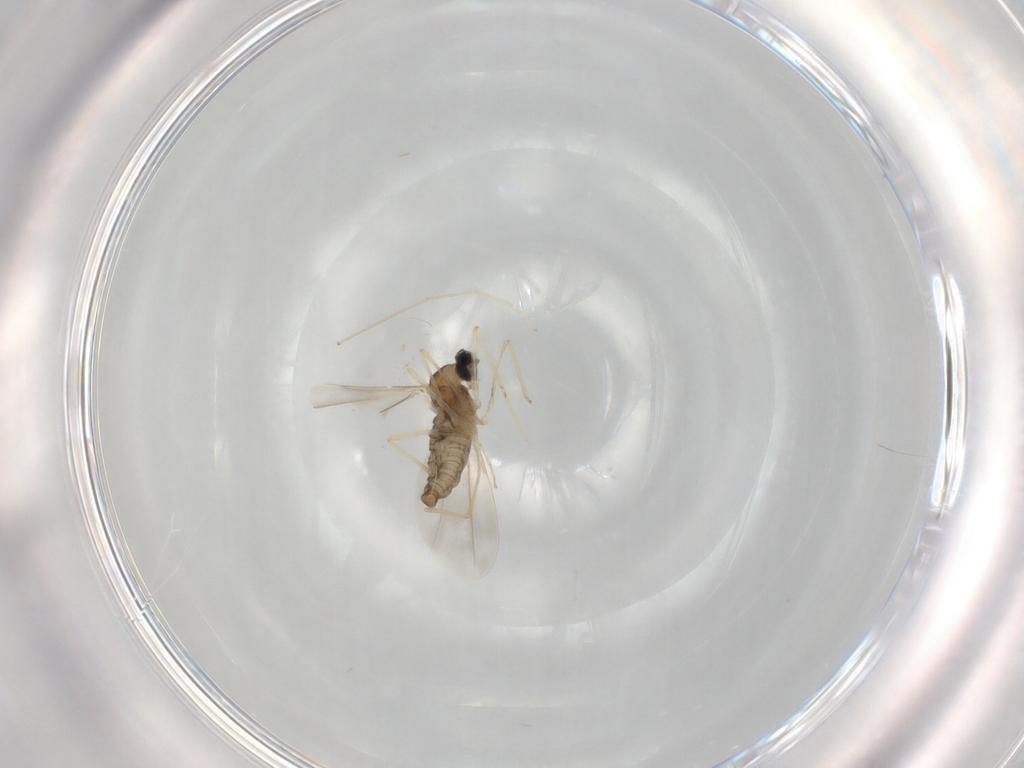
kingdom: Animalia
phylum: Arthropoda
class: Insecta
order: Diptera
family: Cecidomyiidae
